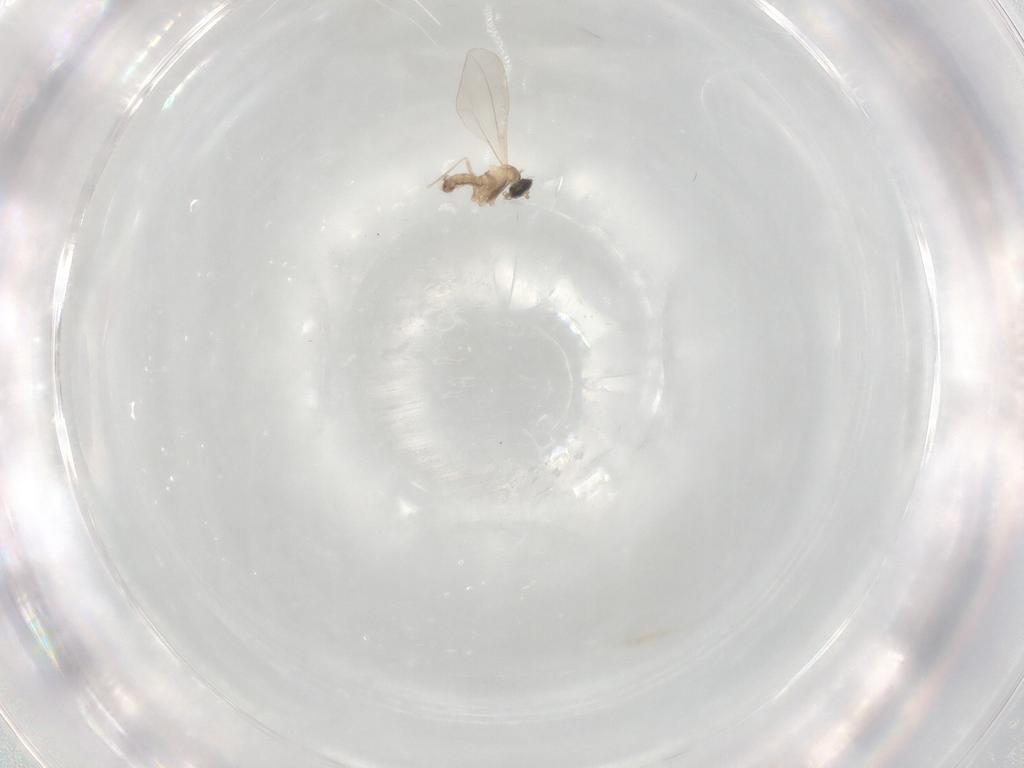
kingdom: Animalia
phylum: Arthropoda
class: Insecta
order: Diptera
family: Cecidomyiidae
